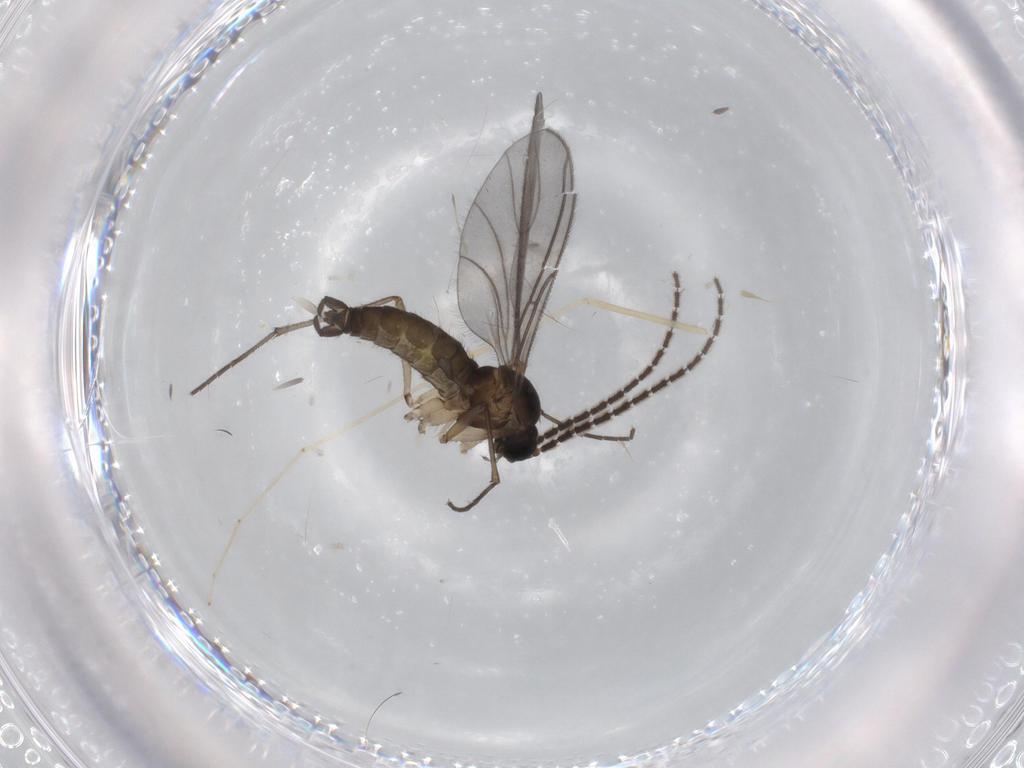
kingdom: Animalia
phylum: Arthropoda
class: Insecta
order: Diptera
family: Cecidomyiidae
